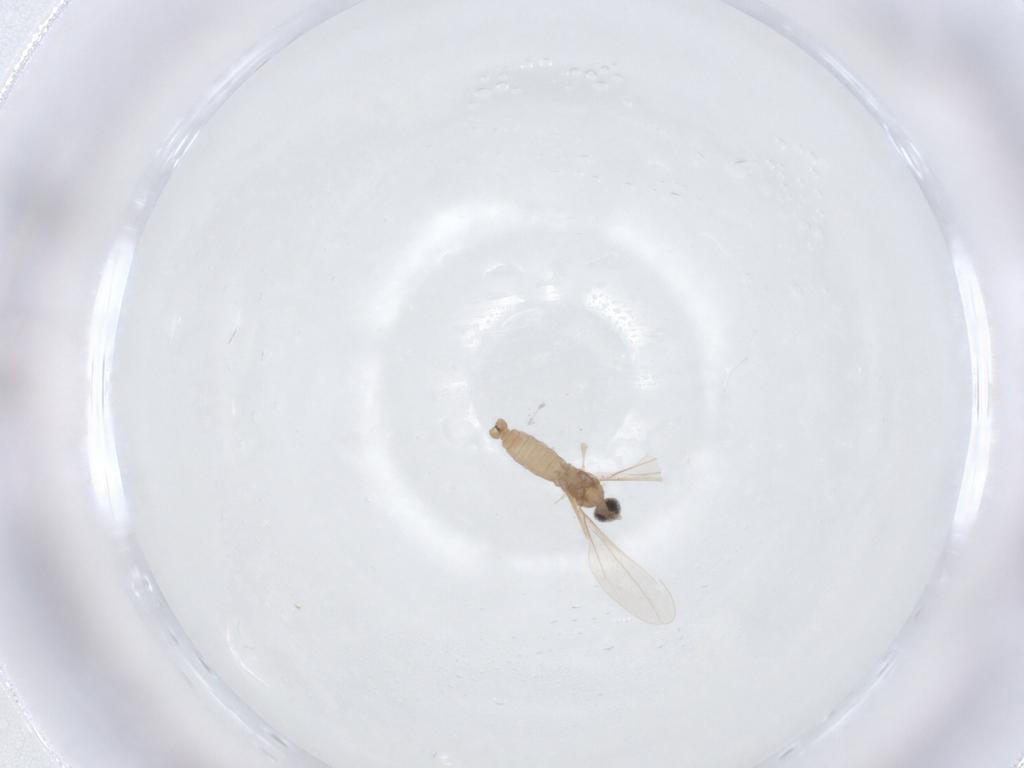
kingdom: Animalia
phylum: Arthropoda
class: Insecta
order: Diptera
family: Cecidomyiidae
